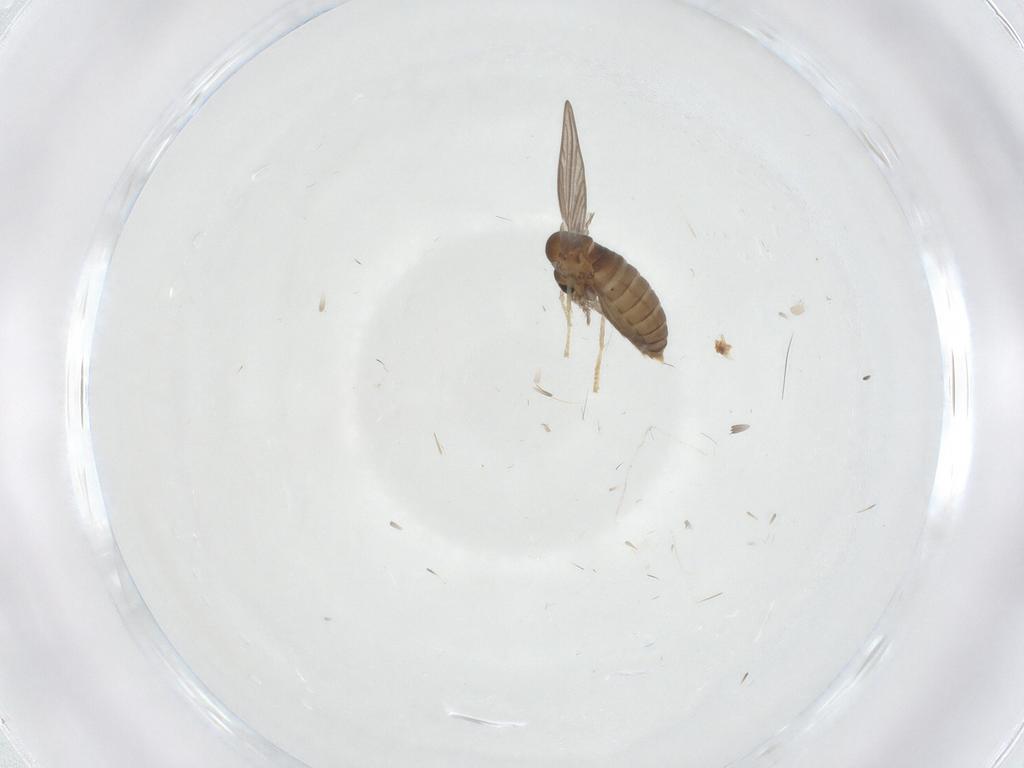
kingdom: Animalia
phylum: Arthropoda
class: Insecta
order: Diptera
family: Psychodidae
